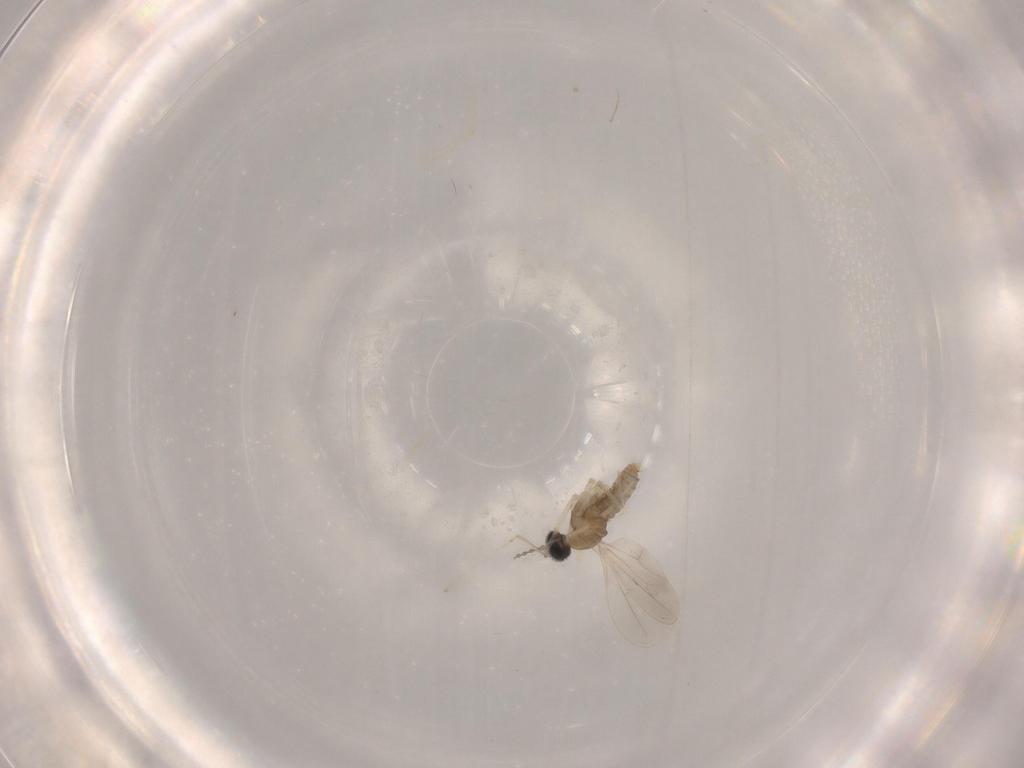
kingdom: Animalia
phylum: Arthropoda
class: Insecta
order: Diptera
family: Cecidomyiidae
